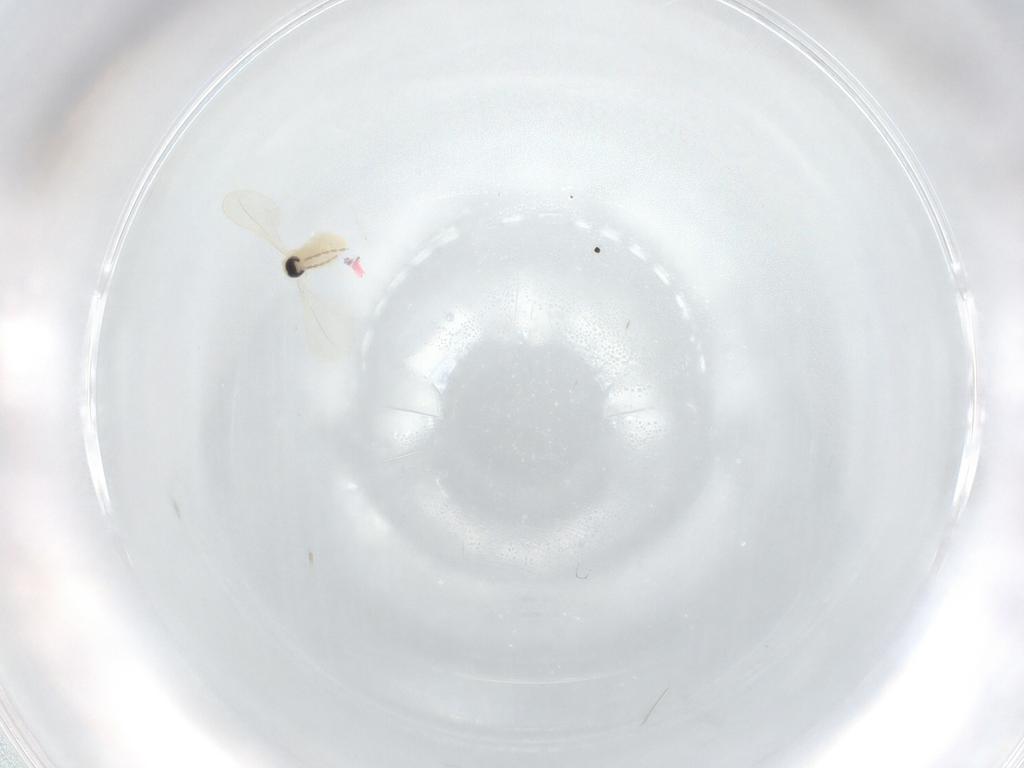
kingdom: Animalia
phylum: Arthropoda
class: Insecta
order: Diptera
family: Cecidomyiidae
